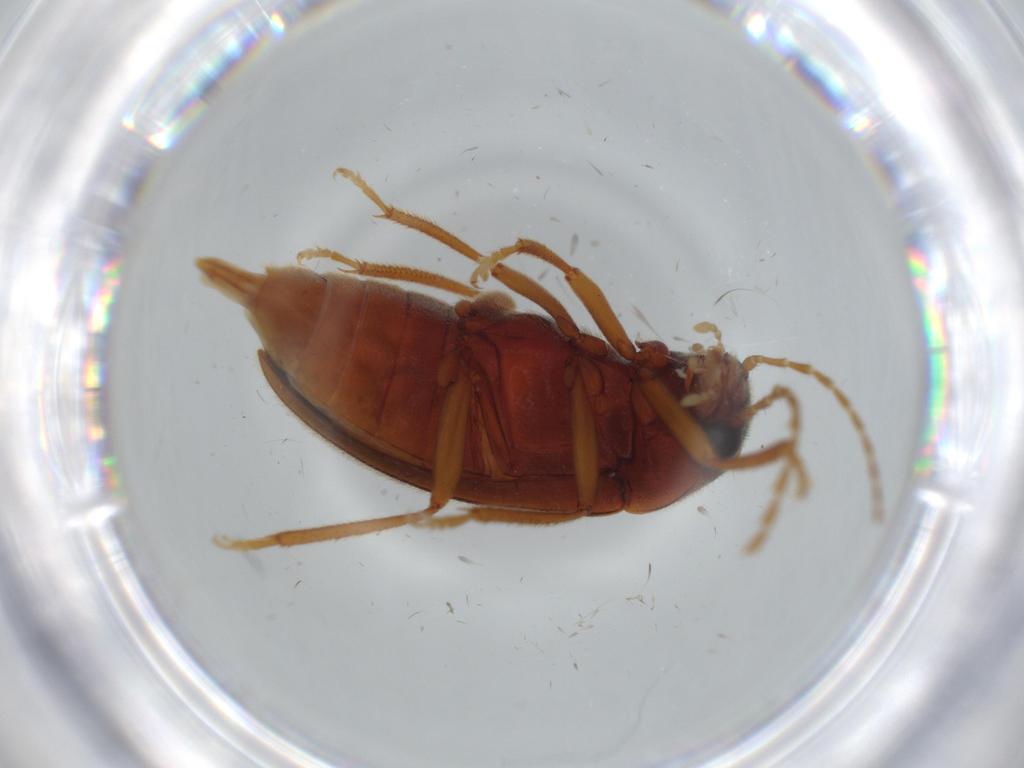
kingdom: Animalia
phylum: Arthropoda
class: Insecta
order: Coleoptera
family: Ptilodactylidae
